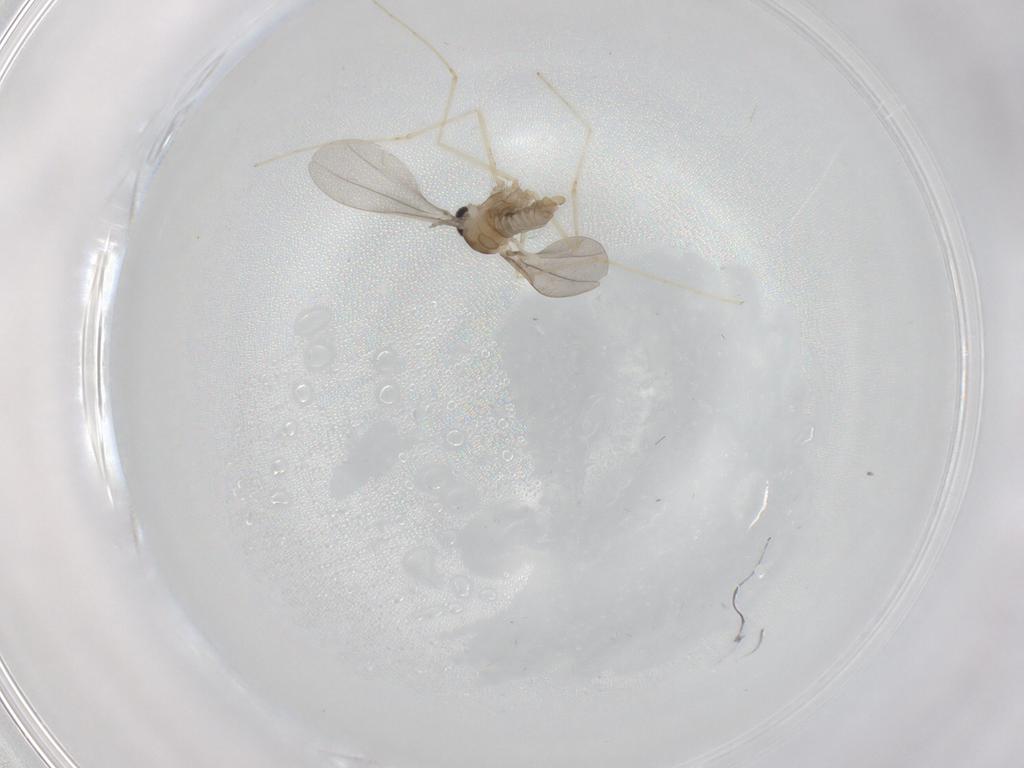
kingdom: Animalia
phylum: Arthropoda
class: Insecta
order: Diptera
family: Cecidomyiidae
